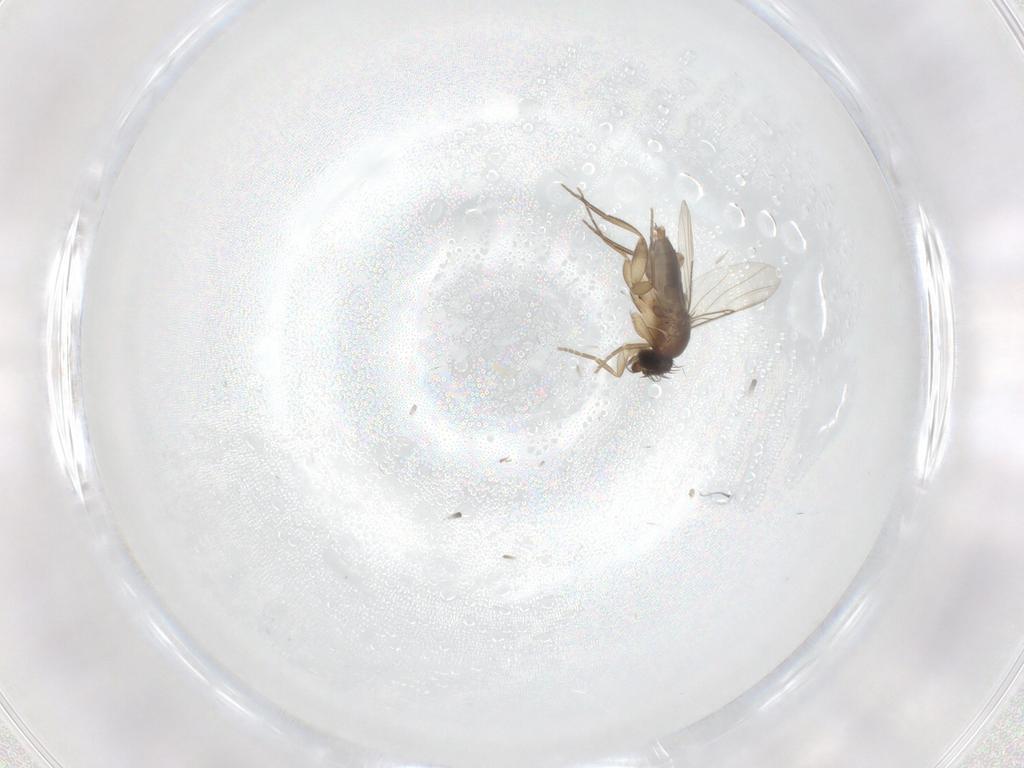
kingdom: Animalia
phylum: Arthropoda
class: Insecta
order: Diptera
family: Phoridae
